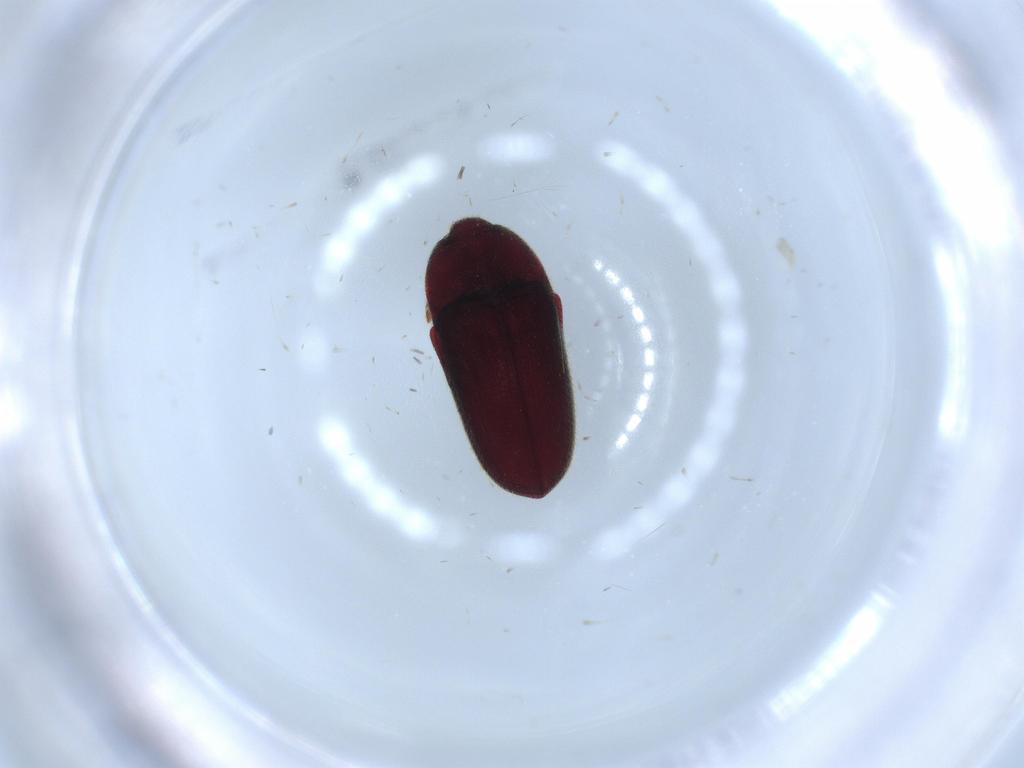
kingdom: Animalia
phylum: Arthropoda
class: Insecta
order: Coleoptera
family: Throscidae
